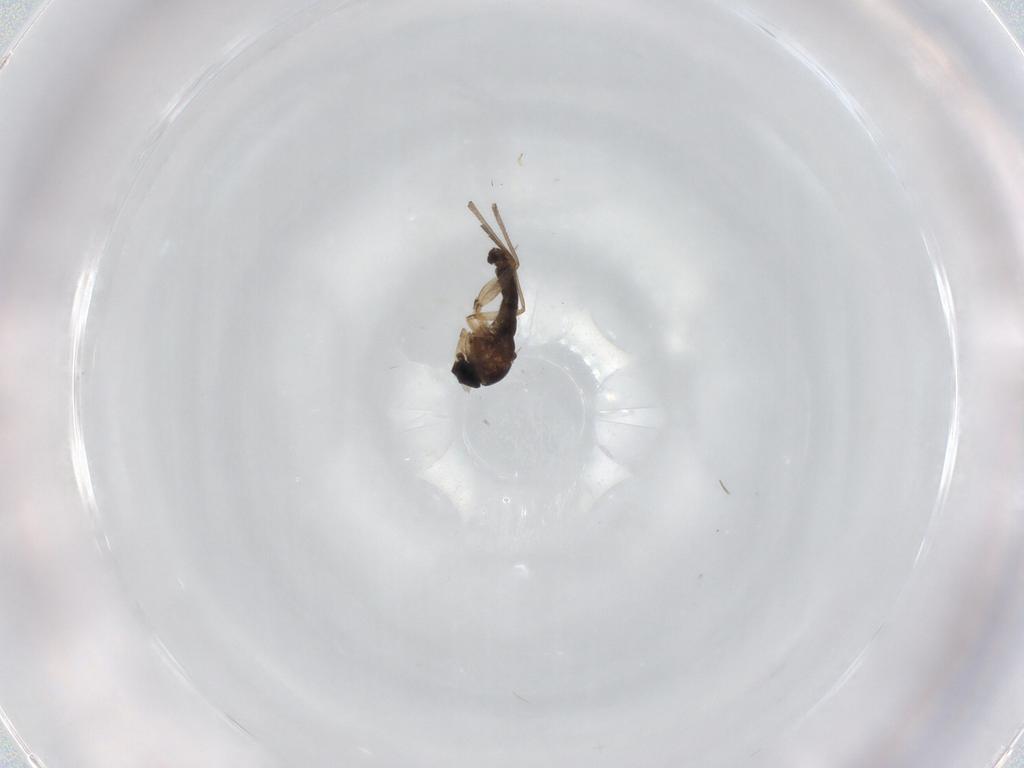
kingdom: Animalia
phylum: Arthropoda
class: Insecta
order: Diptera
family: Sciaridae
